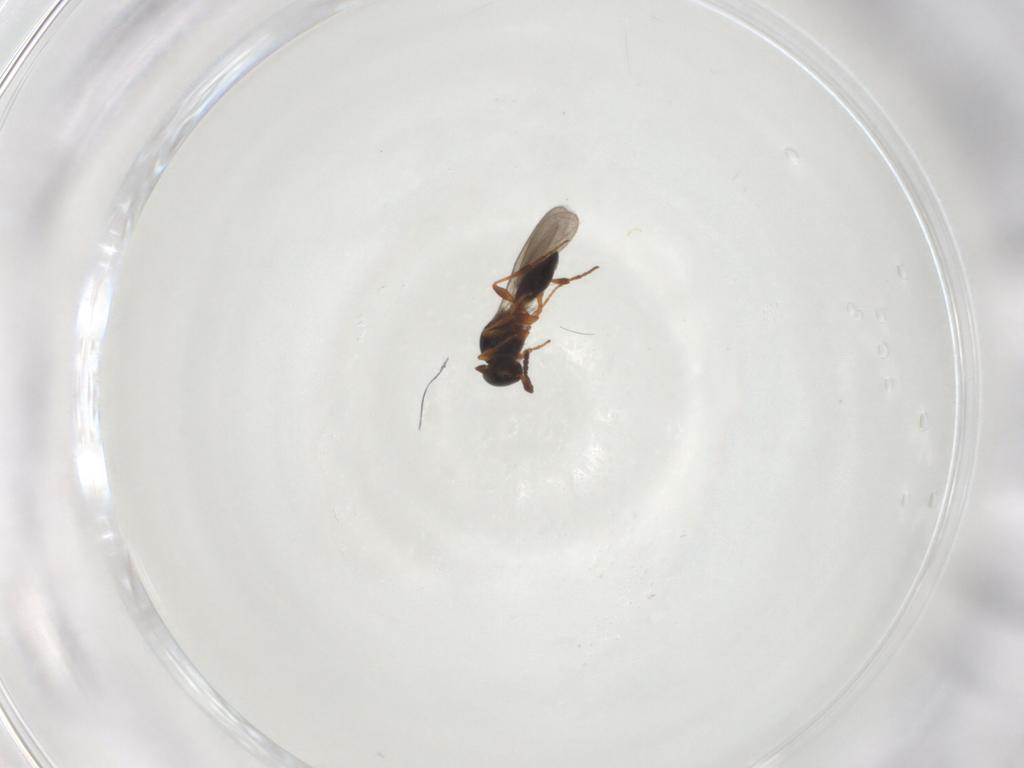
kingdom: Animalia
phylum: Arthropoda
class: Insecta
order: Hymenoptera
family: Platygastridae
